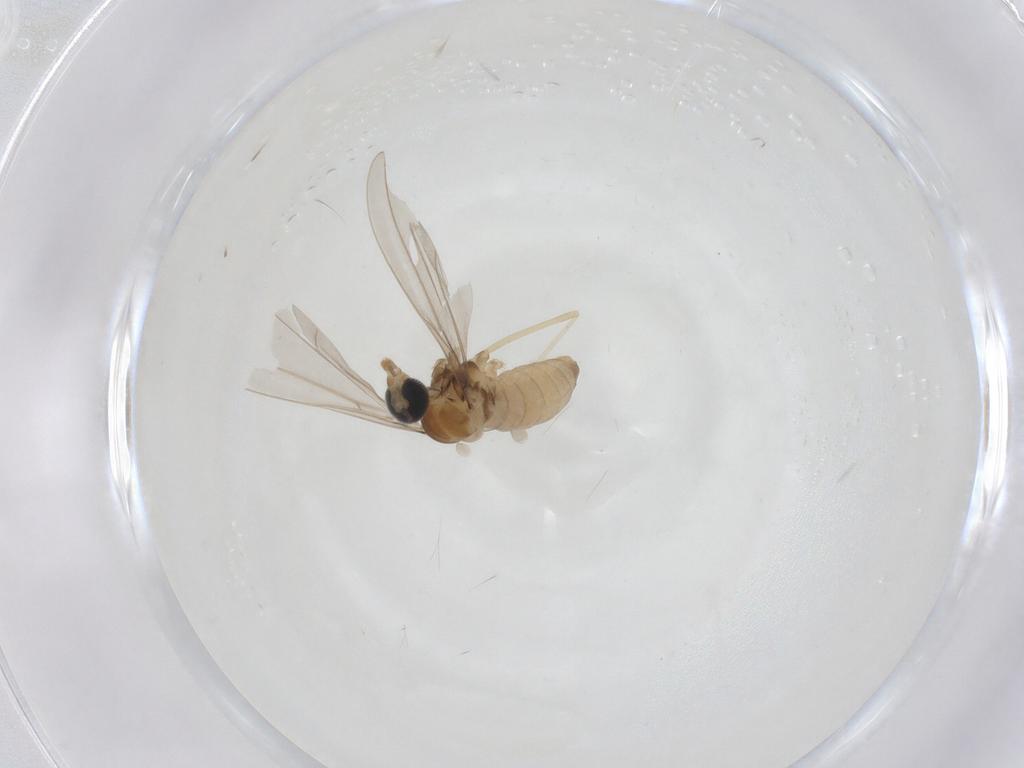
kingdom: Animalia
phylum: Arthropoda
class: Insecta
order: Diptera
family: Cecidomyiidae
